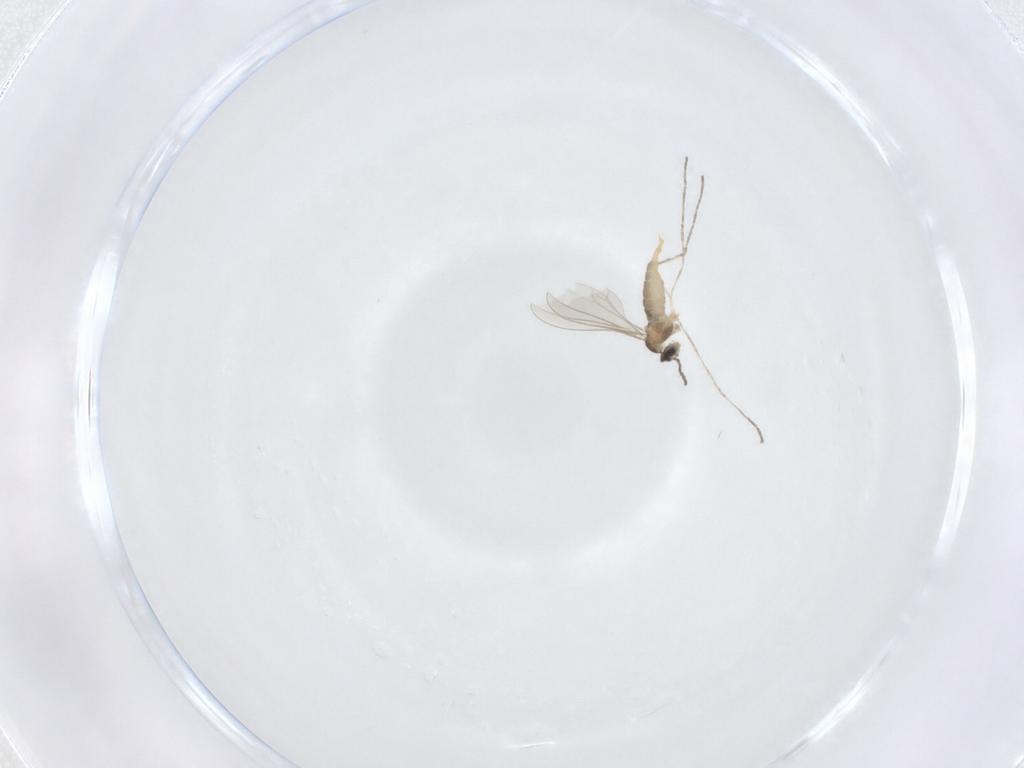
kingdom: Animalia
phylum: Arthropoda
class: Insecta
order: Diptera
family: Cecidomyiidae
